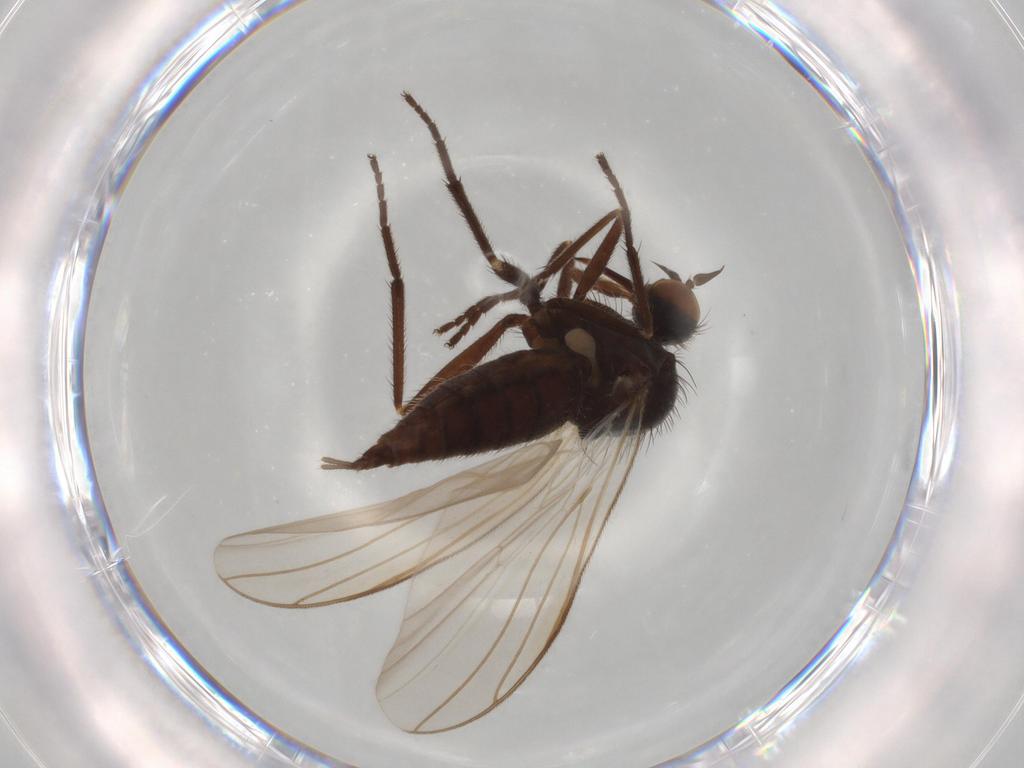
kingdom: Animalia
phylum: Arthropoda
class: Insecta
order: Diptera
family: Empididae
